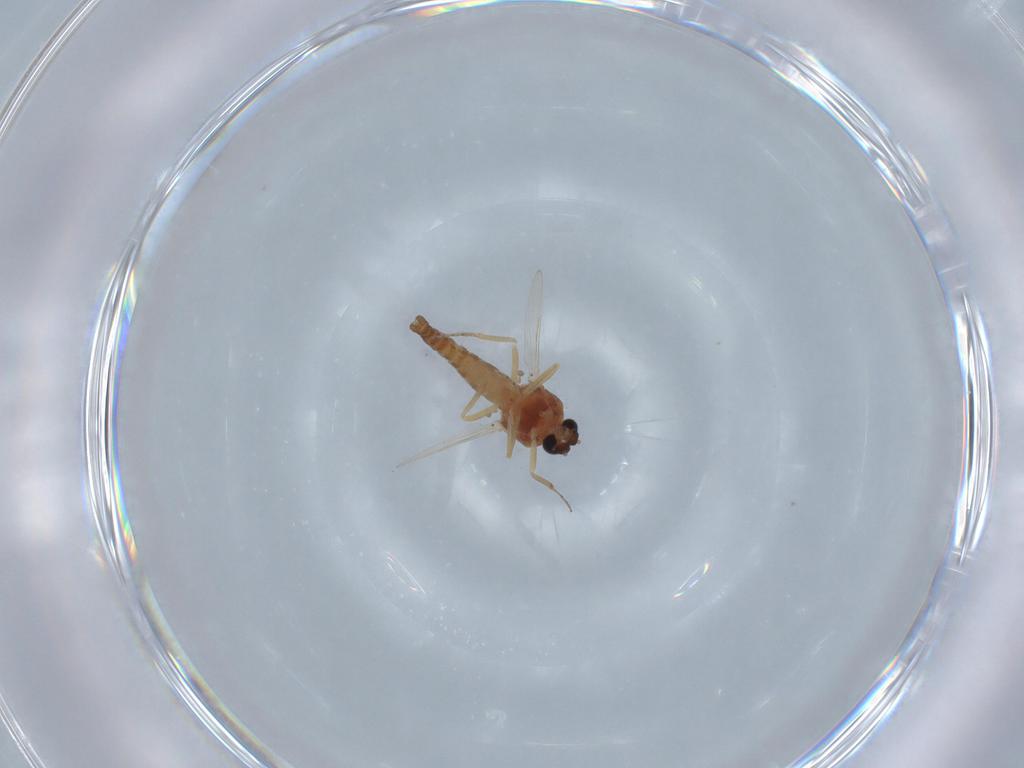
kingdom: Animalia
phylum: Arthropoda
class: Insecta
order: Diptera
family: Ceratopogonidae
